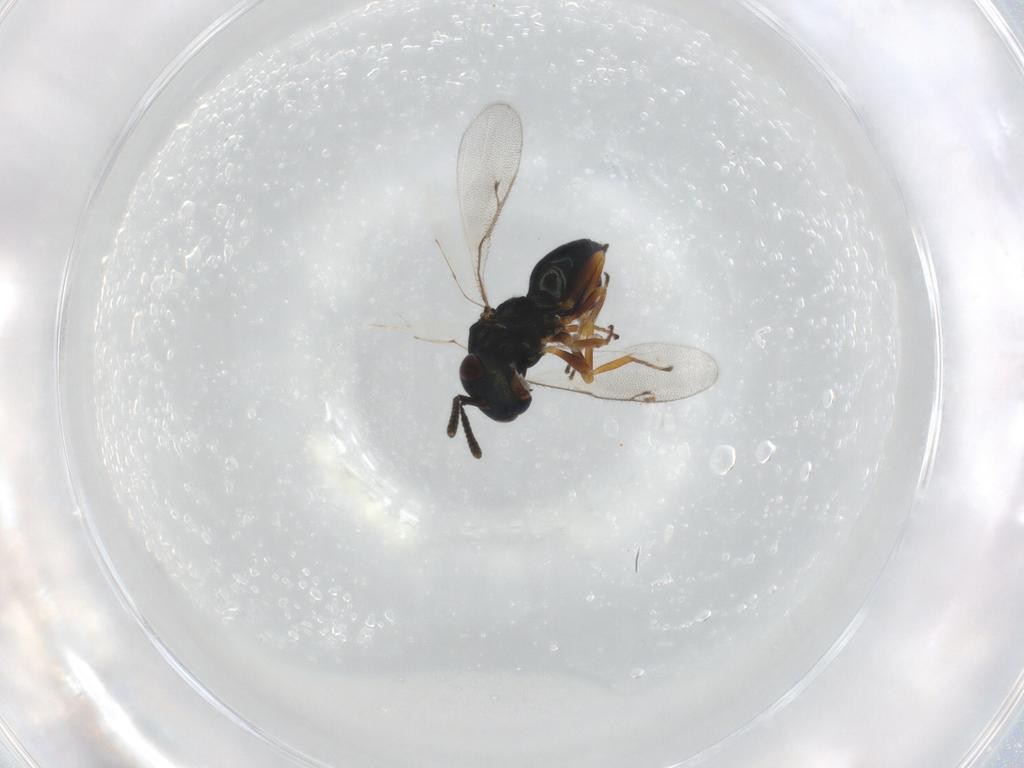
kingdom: Animalia
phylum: Arthropoda
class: Insecta
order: Hymenoptera
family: Pteromalidae
